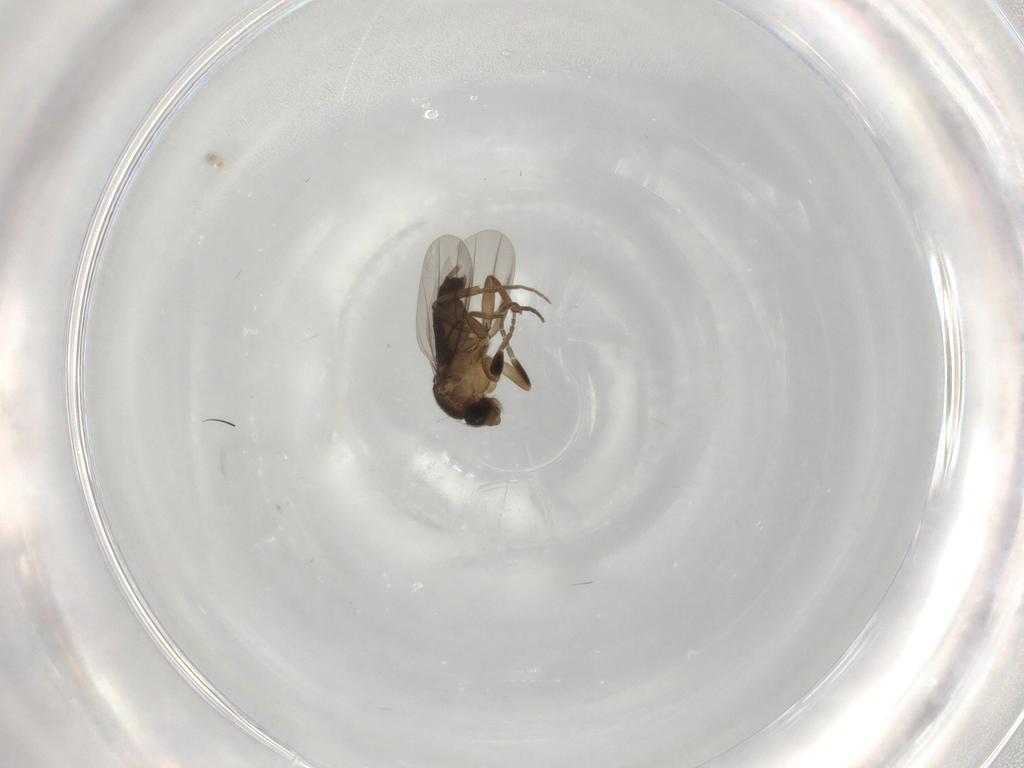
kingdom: Animalia
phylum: Arthropoda
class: Insecta
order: Diptera
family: Phoridae
